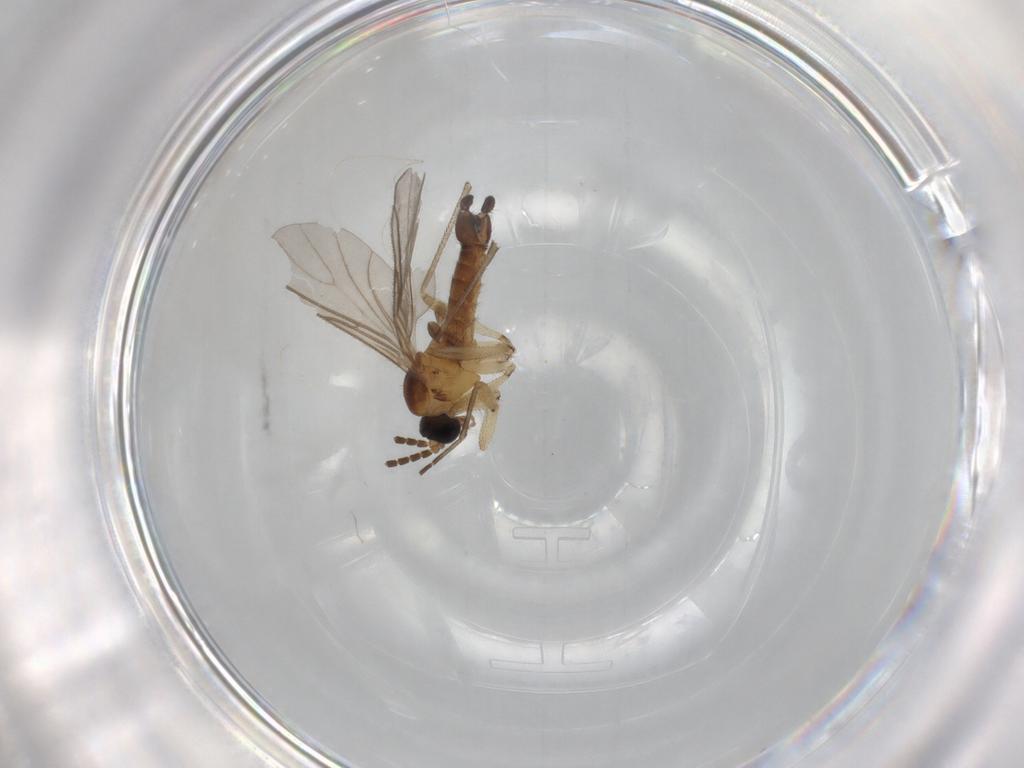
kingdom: Animalia
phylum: Arthropoda
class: Insecta
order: Diptera
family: Sciaridae
